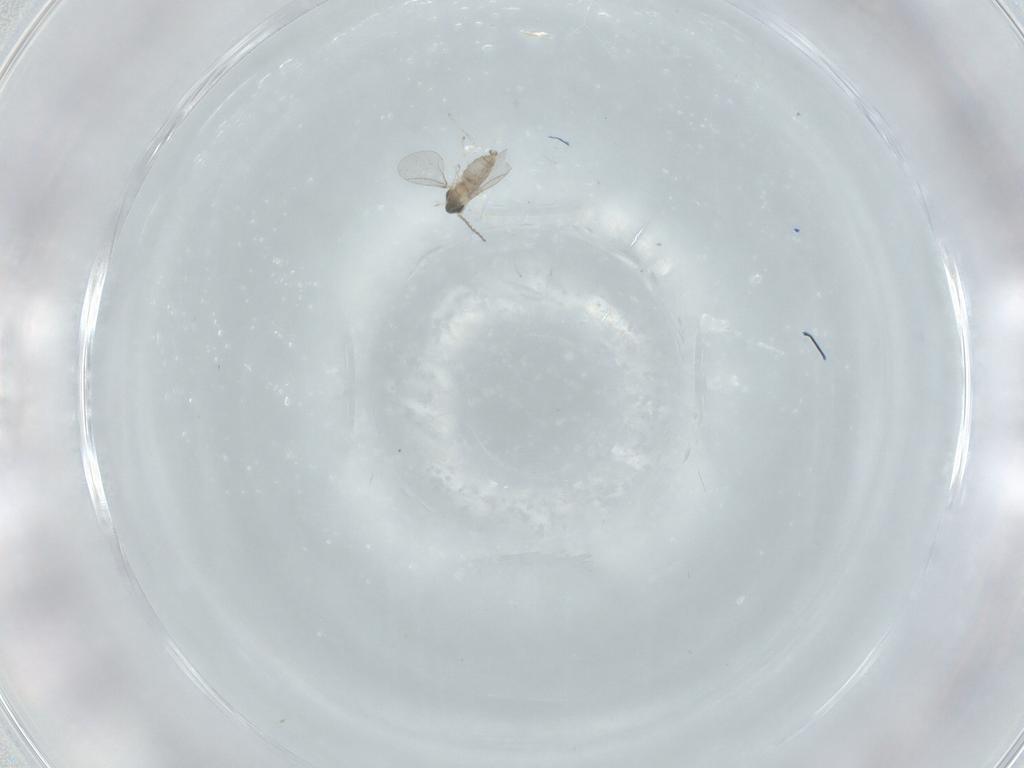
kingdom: Animalia
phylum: Arthropoda
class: Insecta
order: Diptera
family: Cecidomyiidae
